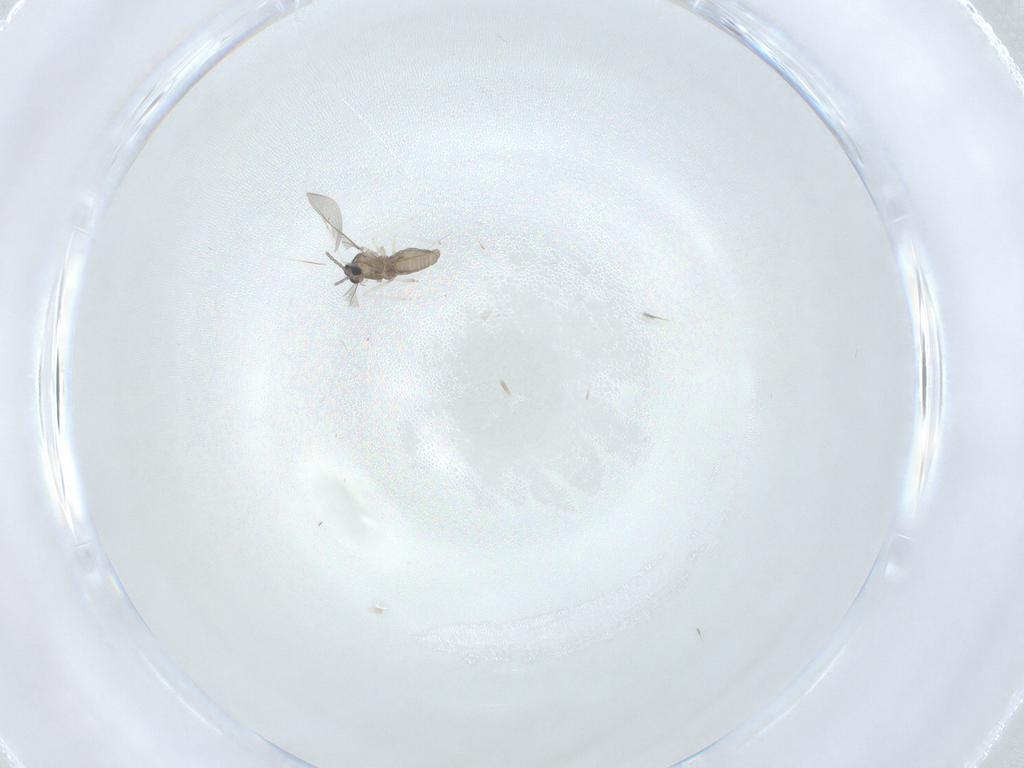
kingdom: Animalia
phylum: Arthropoda
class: Insecta
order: Diptera
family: Cecidomyiidae
